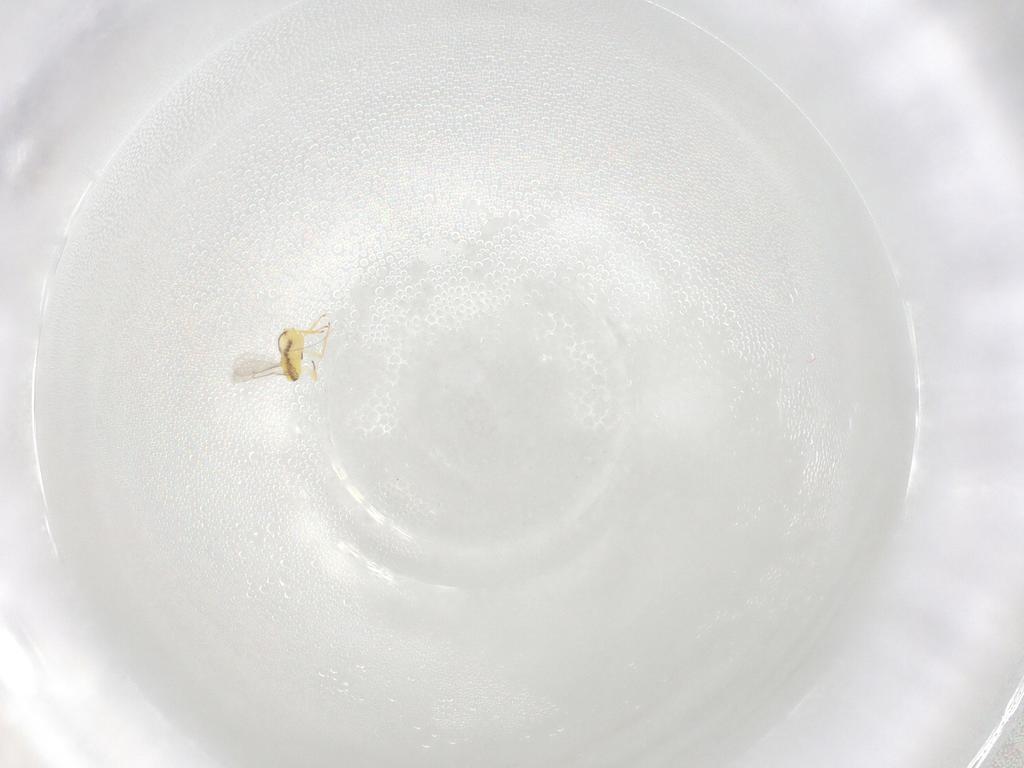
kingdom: Animalia
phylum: Arthropoda
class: Insecta
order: Hymenoptera
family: Aphelinidae
